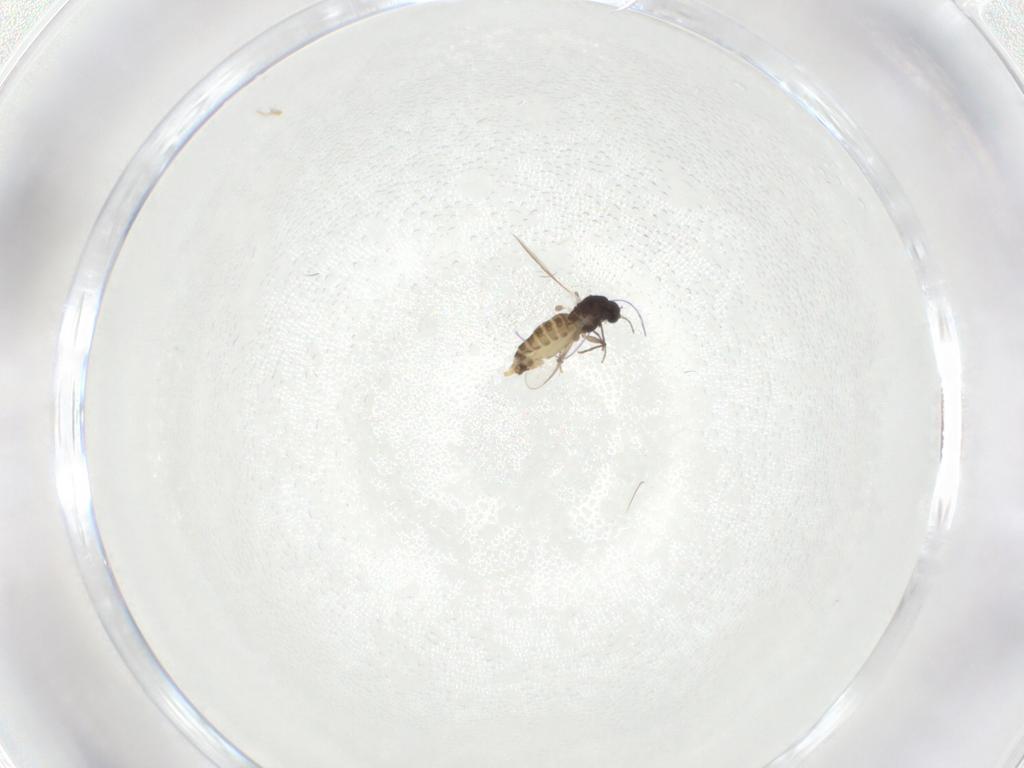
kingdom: Animalia
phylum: Arthropoda
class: Insecta
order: Diptera
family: Chironomidae
